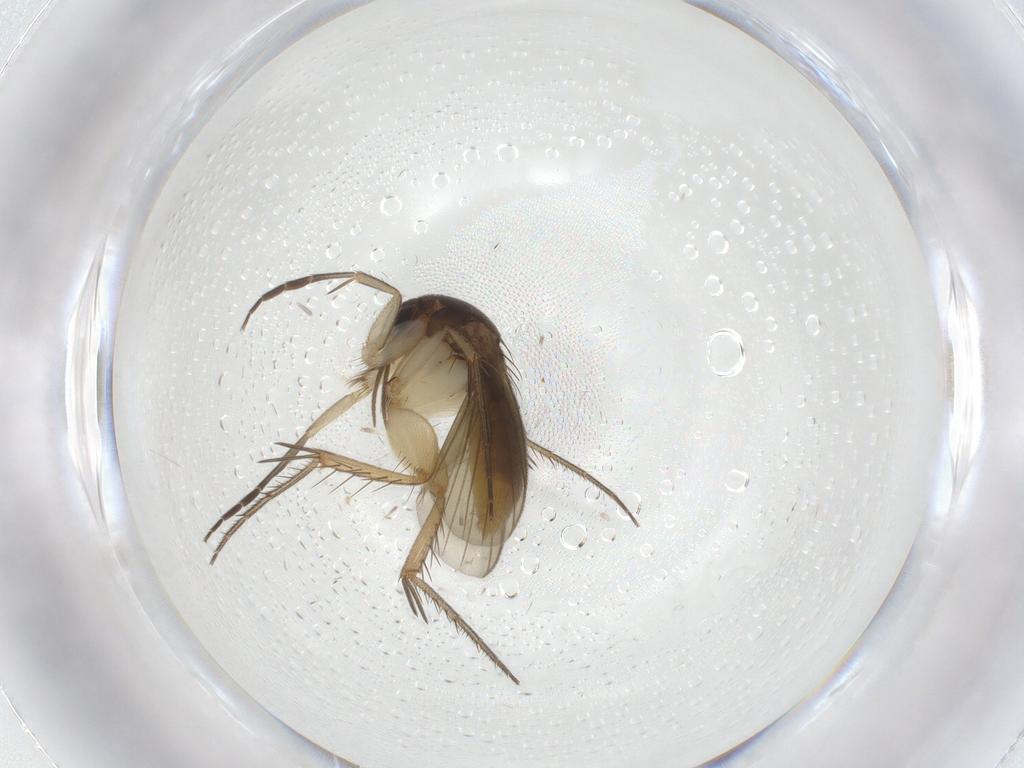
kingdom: Animalia
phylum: Arthropoda
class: Insecta
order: Diptera
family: Mycetophilidae
